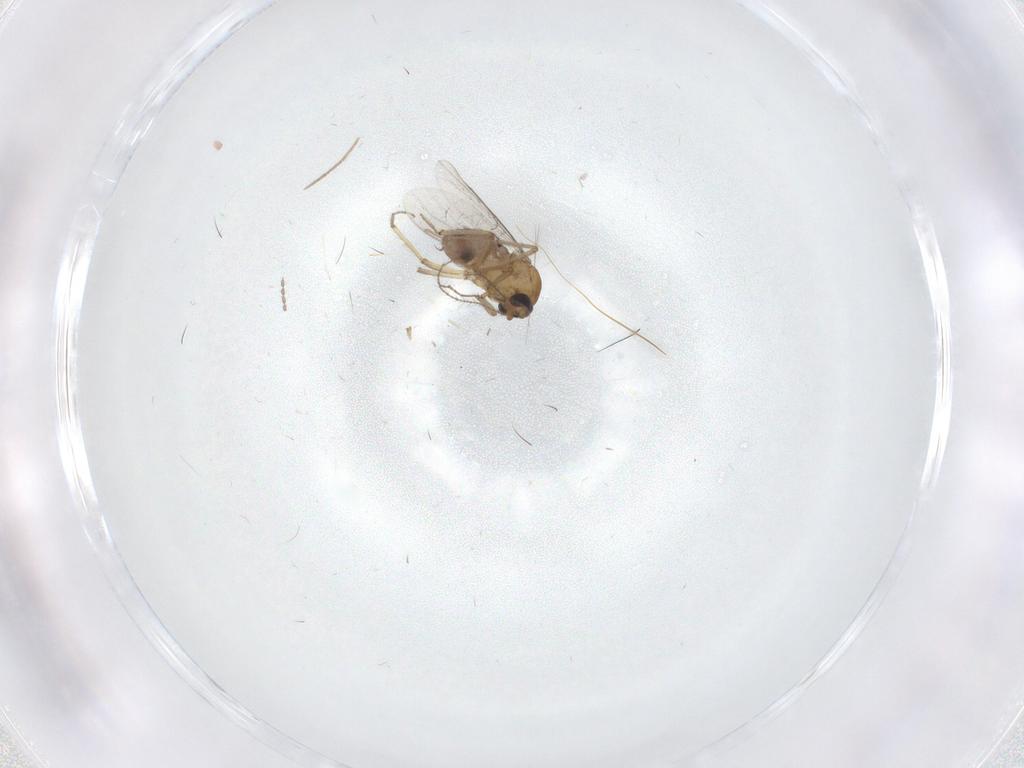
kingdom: Animalia
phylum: Arthropoda
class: Insecta
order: Diptera
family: Cecidomyiidae
